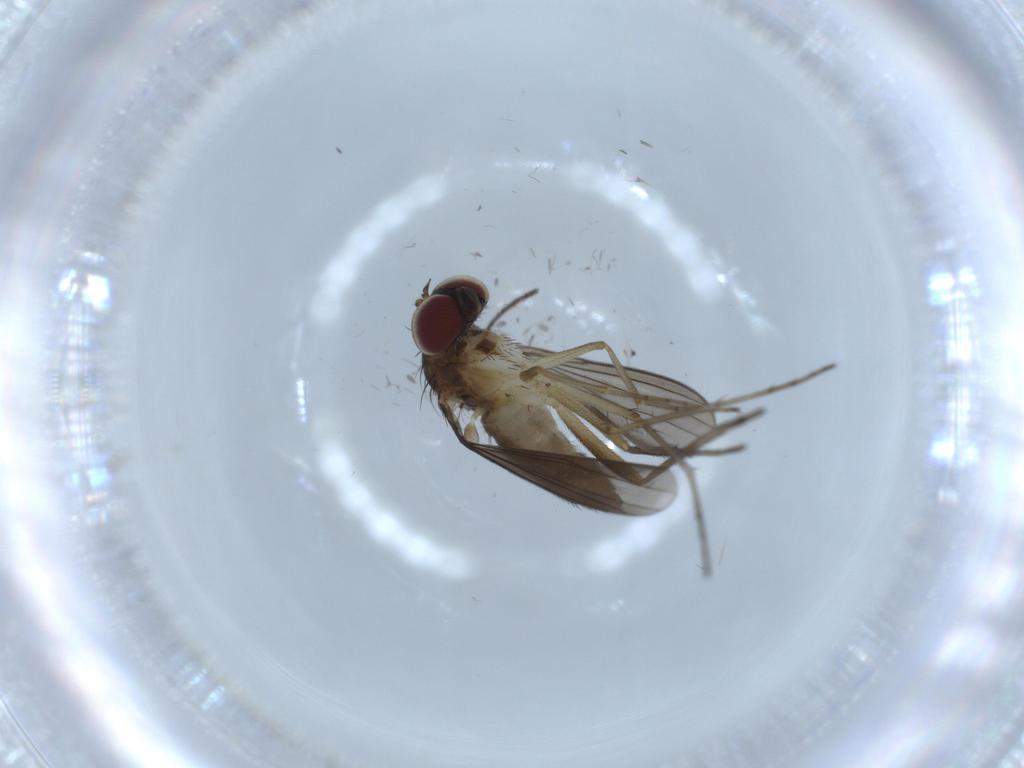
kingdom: Animalia
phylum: Arthropoda
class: Insecta
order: Diptera
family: Dolichopodidae
